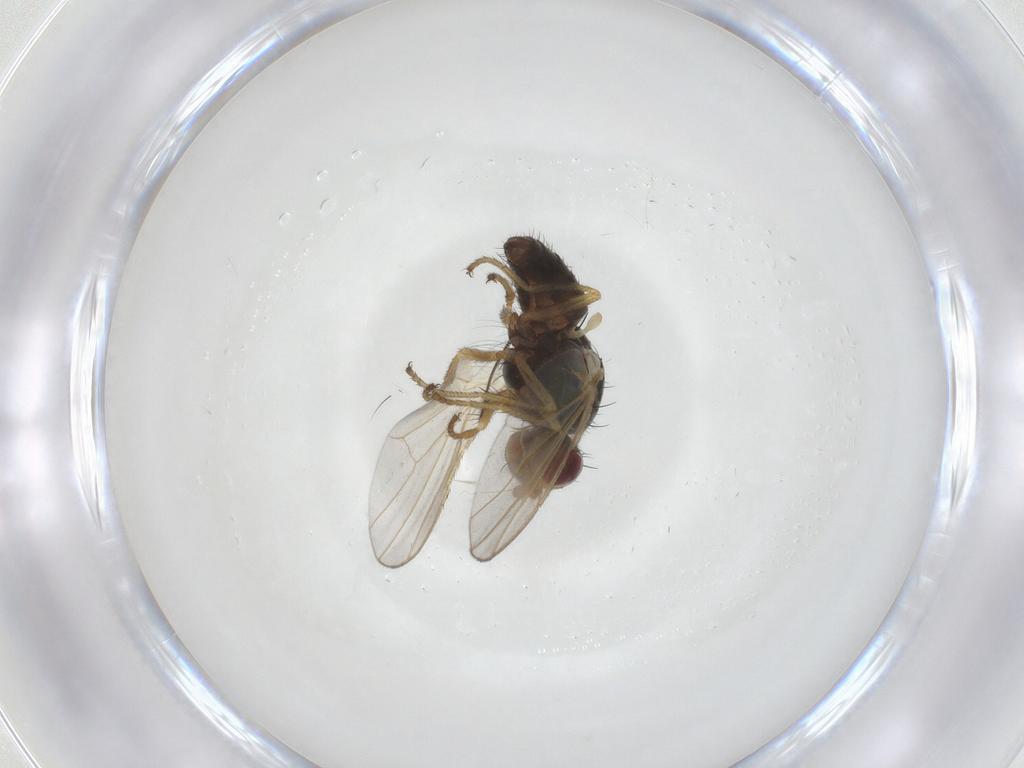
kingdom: Animalia
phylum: Arthropoda
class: Insecta
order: Diptera
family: Heleomyzidae
